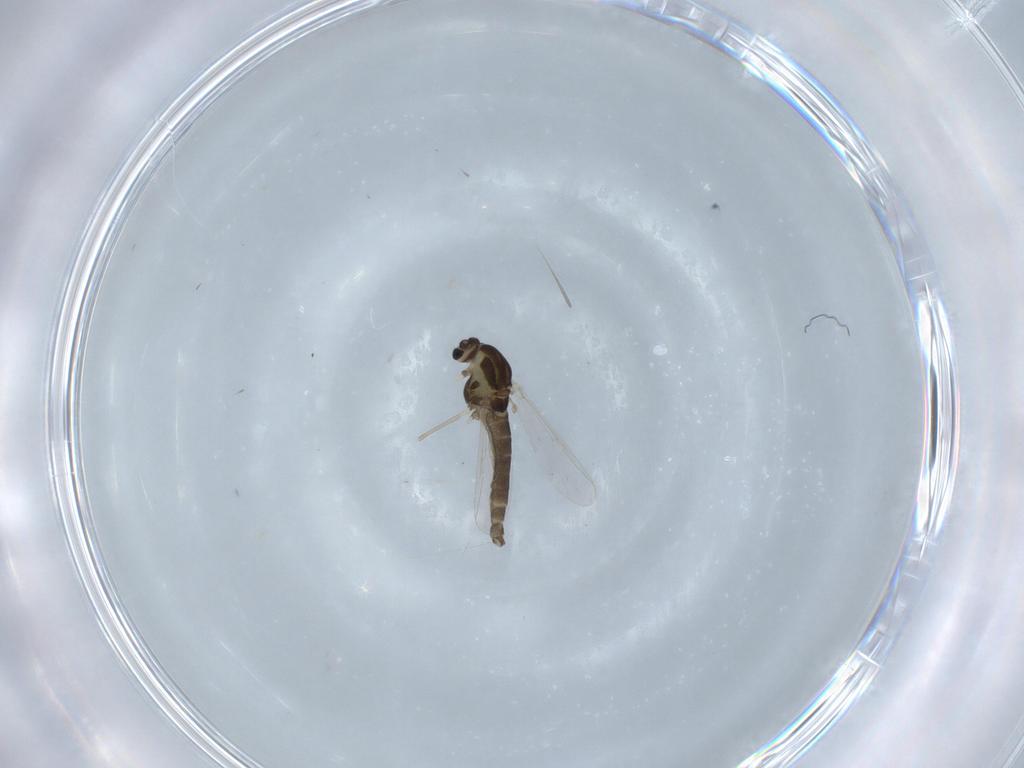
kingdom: Animalia
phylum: Arthropoda
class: Insecta
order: Diptera
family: Chironomidae
